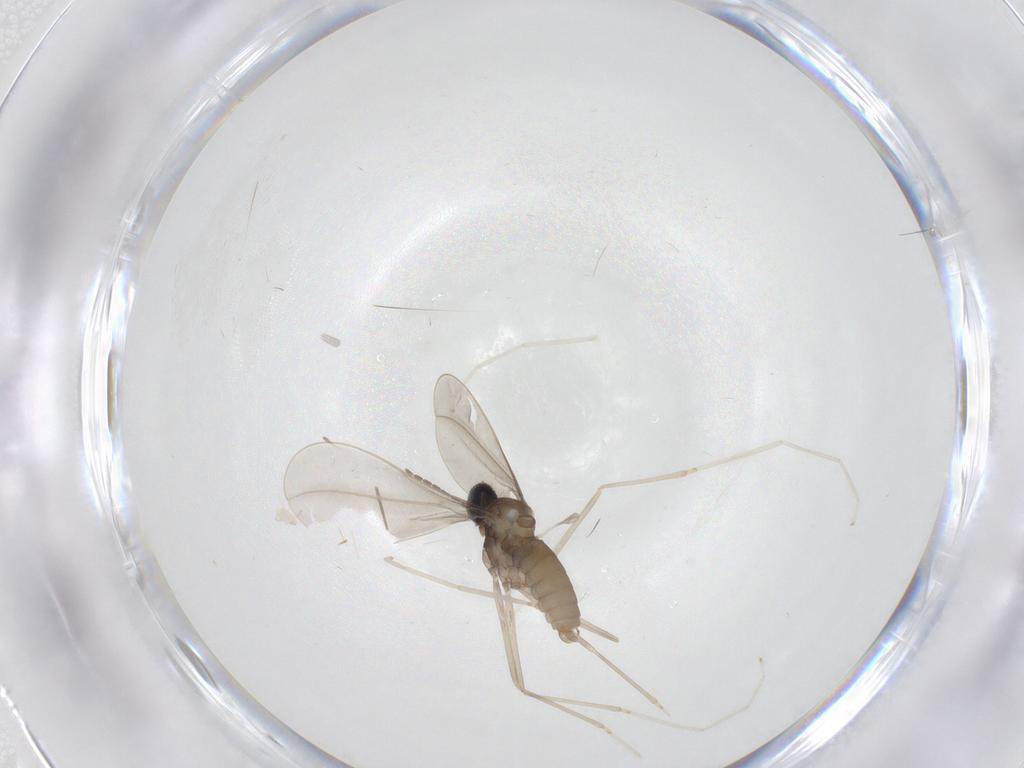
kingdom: Animalia
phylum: Arthropoda
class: Insecta
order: Diptera
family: Cecidomyiidae
